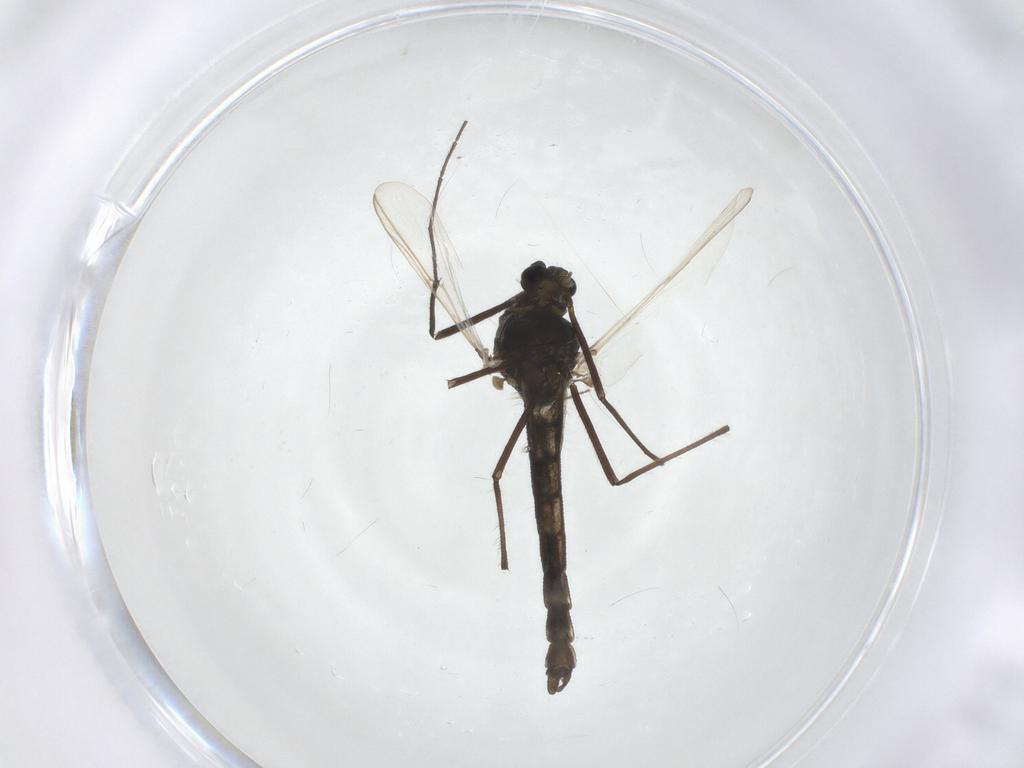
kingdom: Animalia
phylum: Arthropoda
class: Insecta
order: Diptera
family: Chironomidae
